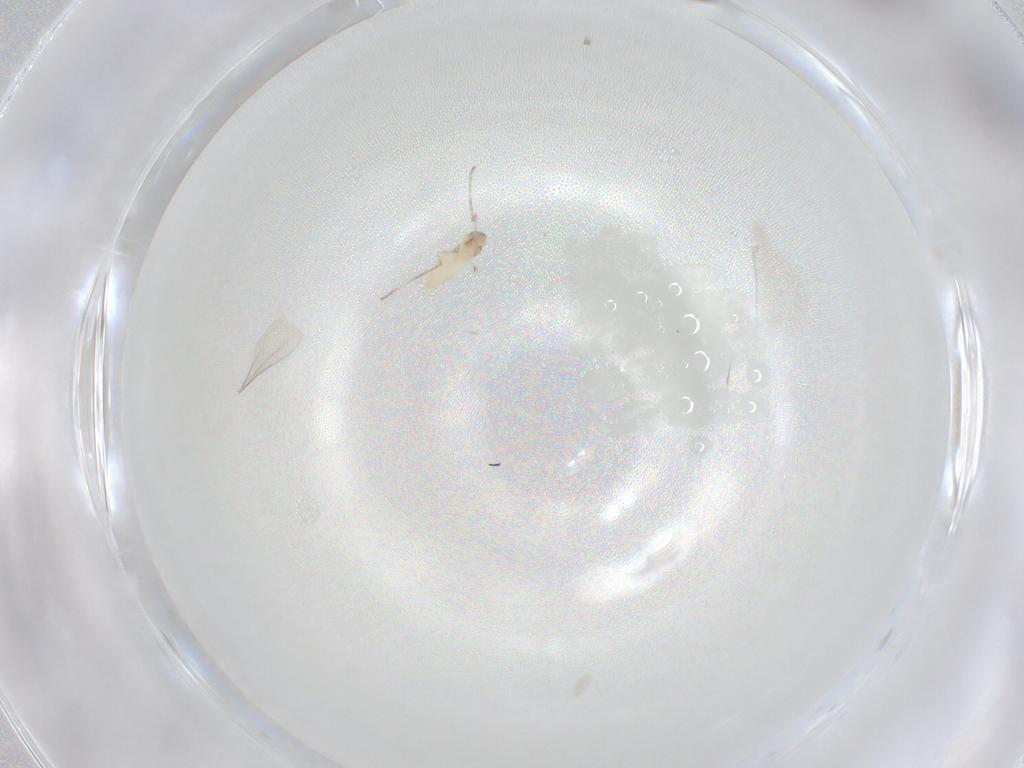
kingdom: Animalia
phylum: Arthropoda
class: Insecta
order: Diptera
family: Cecidomyiidae
